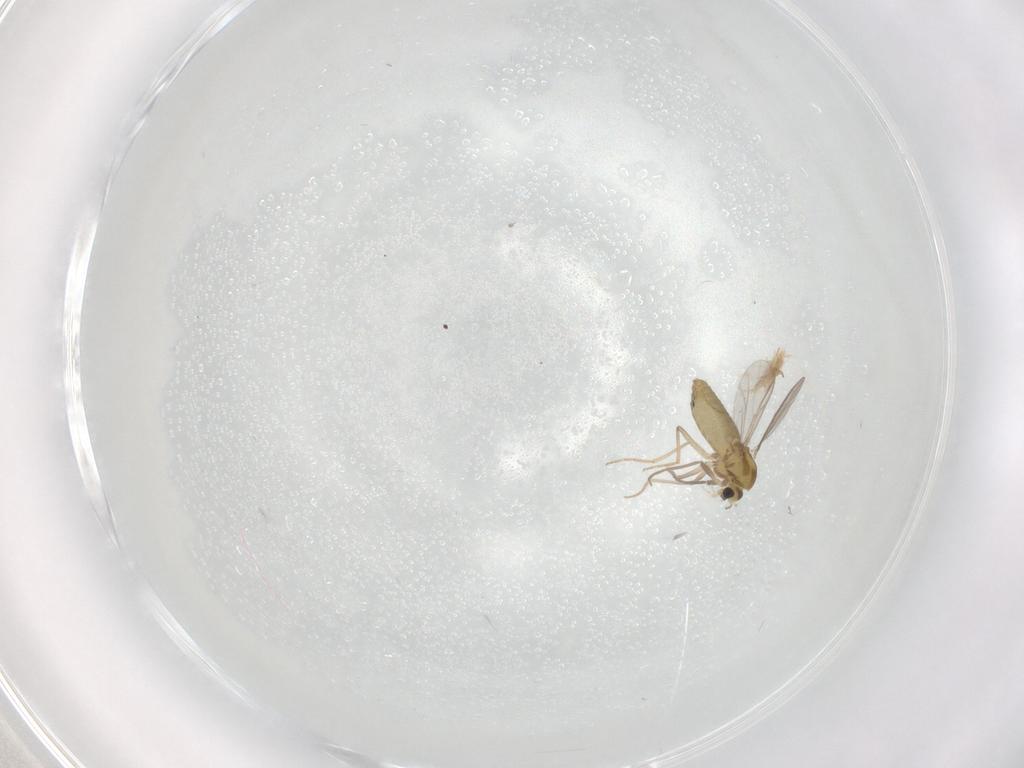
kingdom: Animalia
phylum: Arthropoda
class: Insecta
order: Diptera
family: Chironomidae
